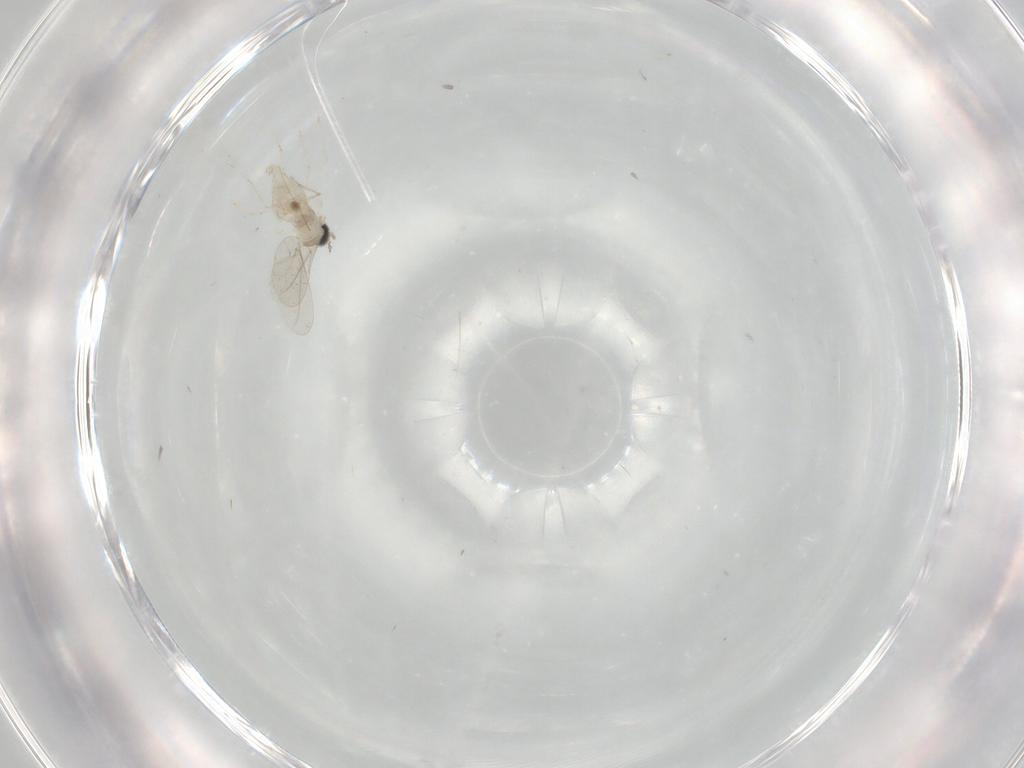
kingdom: Animalia
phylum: Arthropoda
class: Insecta
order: Diptera
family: Cecidomyiidae
